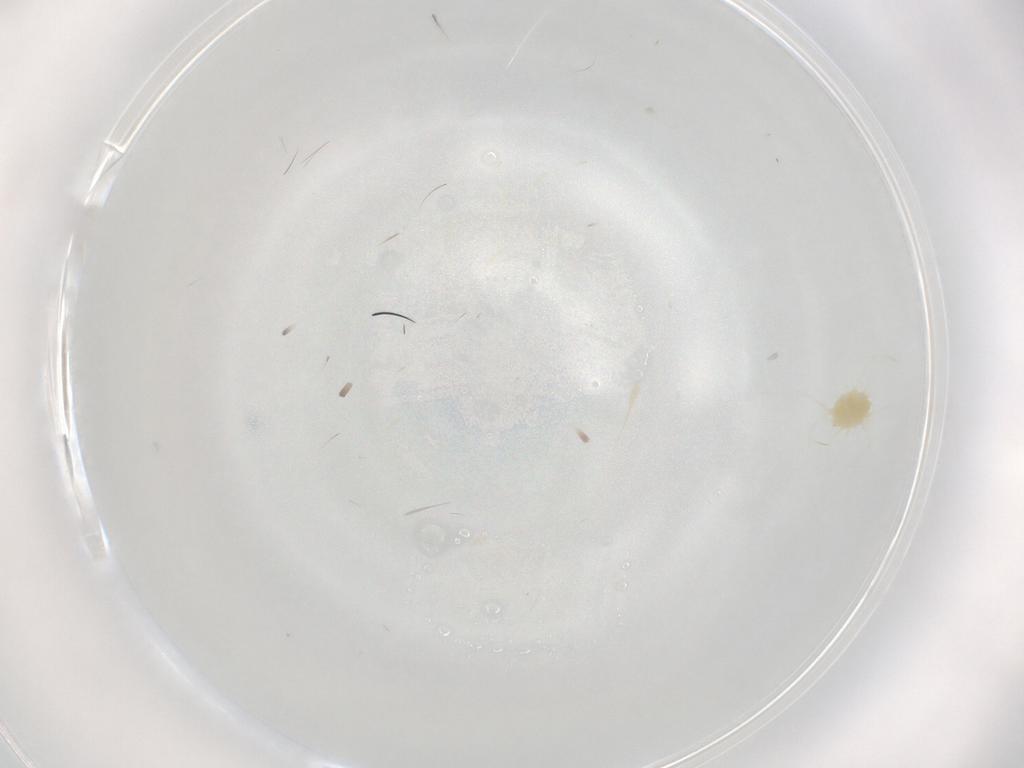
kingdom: Animalia
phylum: Arthropoda
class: Arachnida
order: Trombidiformes
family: Tetranychidae
